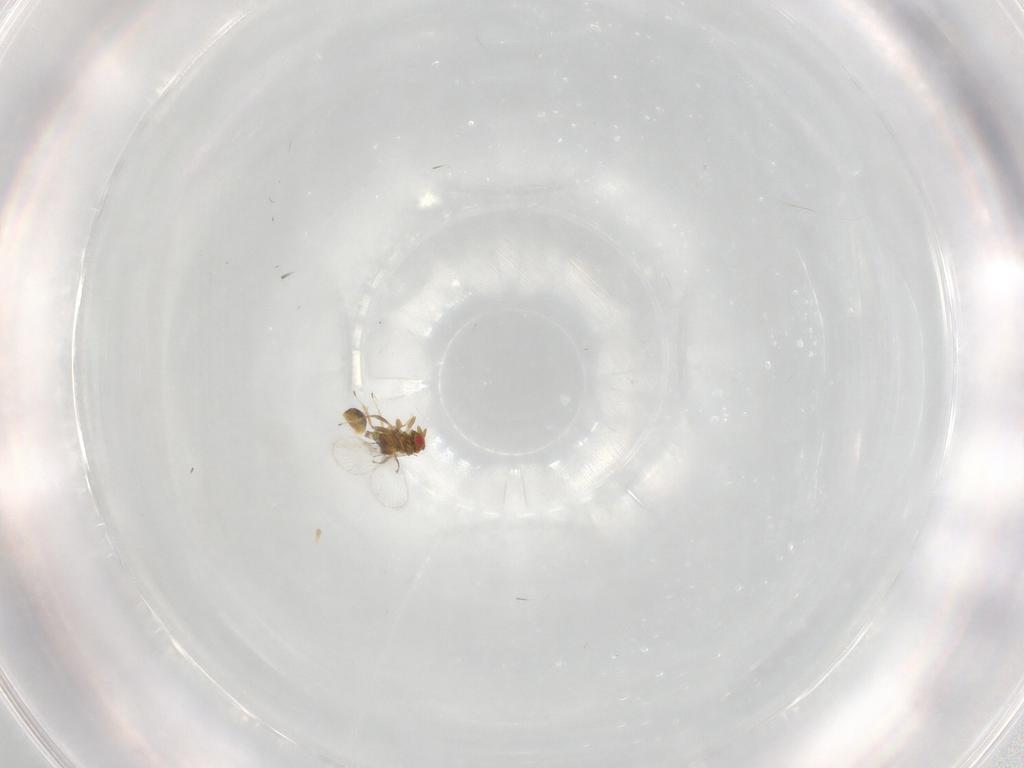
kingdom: Animalia
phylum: Arthropoda
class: Insecta
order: Hymenoptera
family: Trichogrammatidae
